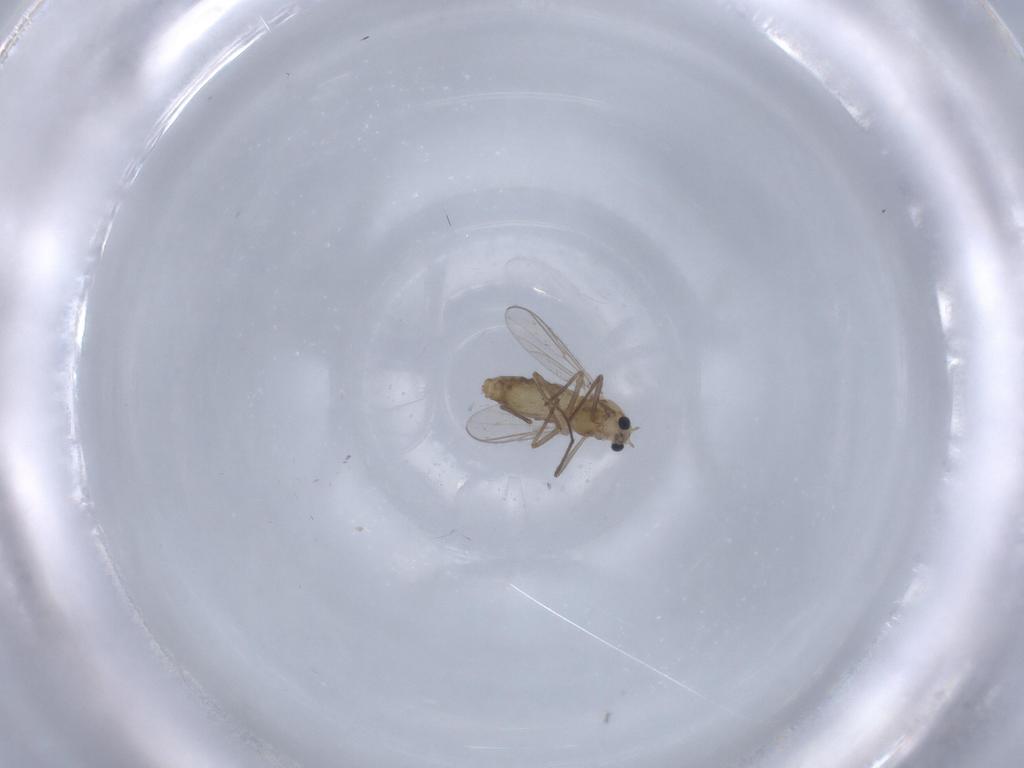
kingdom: Animalia
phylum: Arthropoda
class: Insecta
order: Diptera
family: Chironomidae
